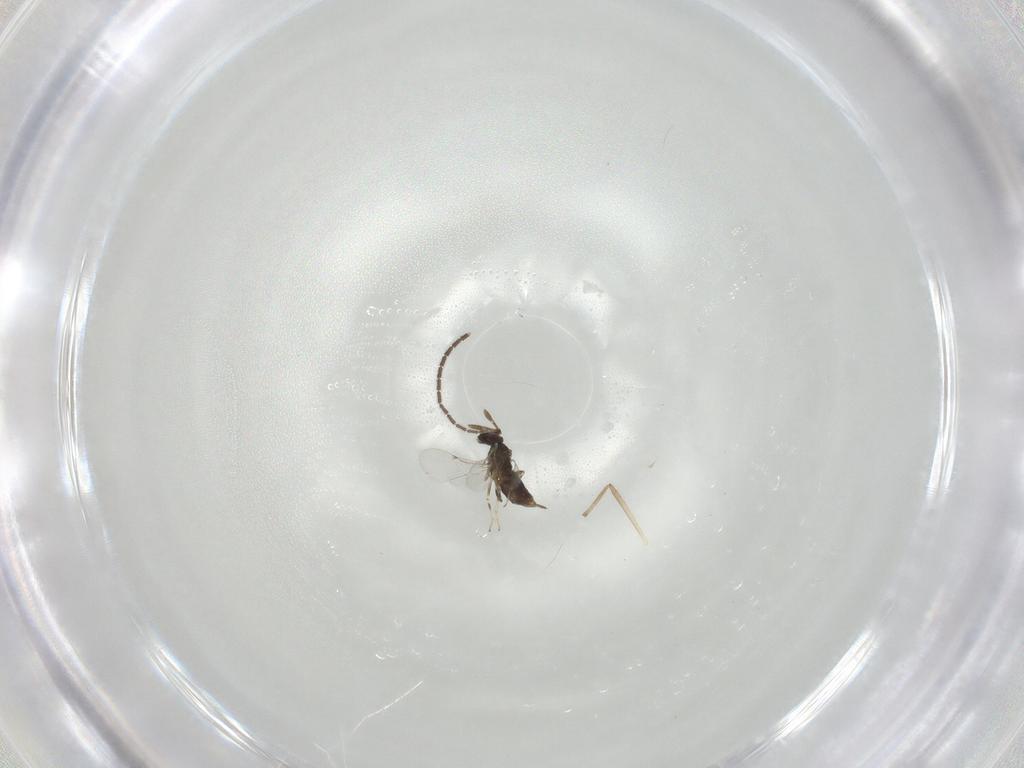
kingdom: Animalia
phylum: Arthropoda
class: Insecta
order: Hymenoptera
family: Encyrtidae
